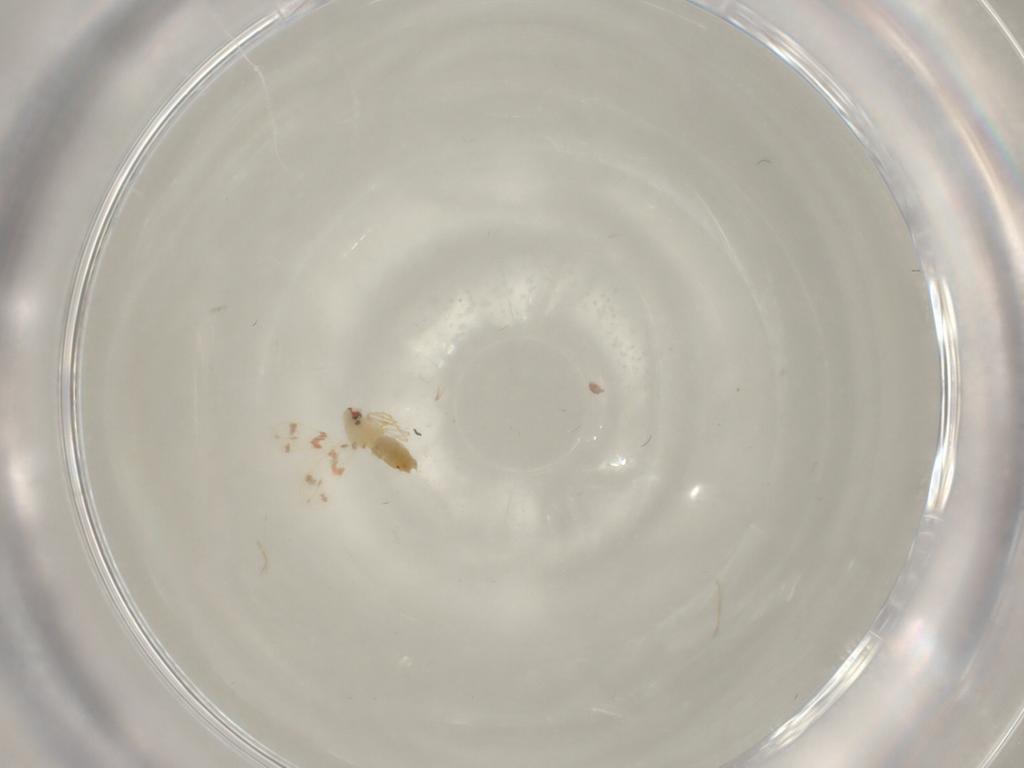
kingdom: Animalia
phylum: Arthropoda
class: Insecta
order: Hemiptera
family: Aleyrodidae
